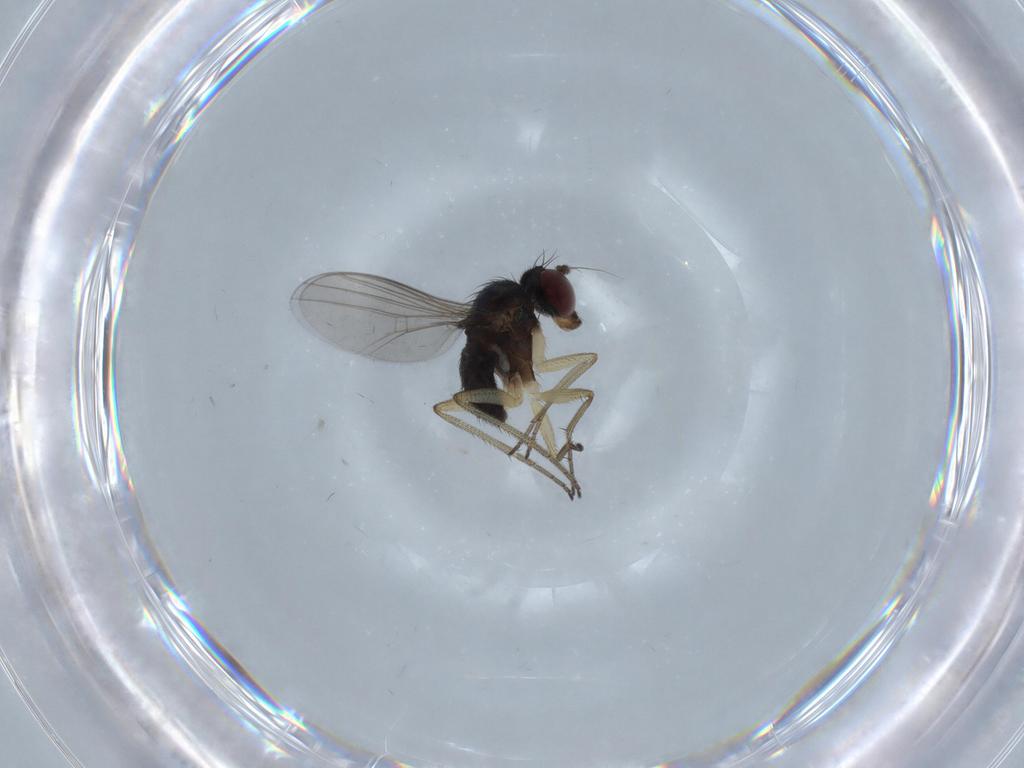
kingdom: Animalia
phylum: Arthropoda
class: Insecta
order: Diptera
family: Dolichopodidae
